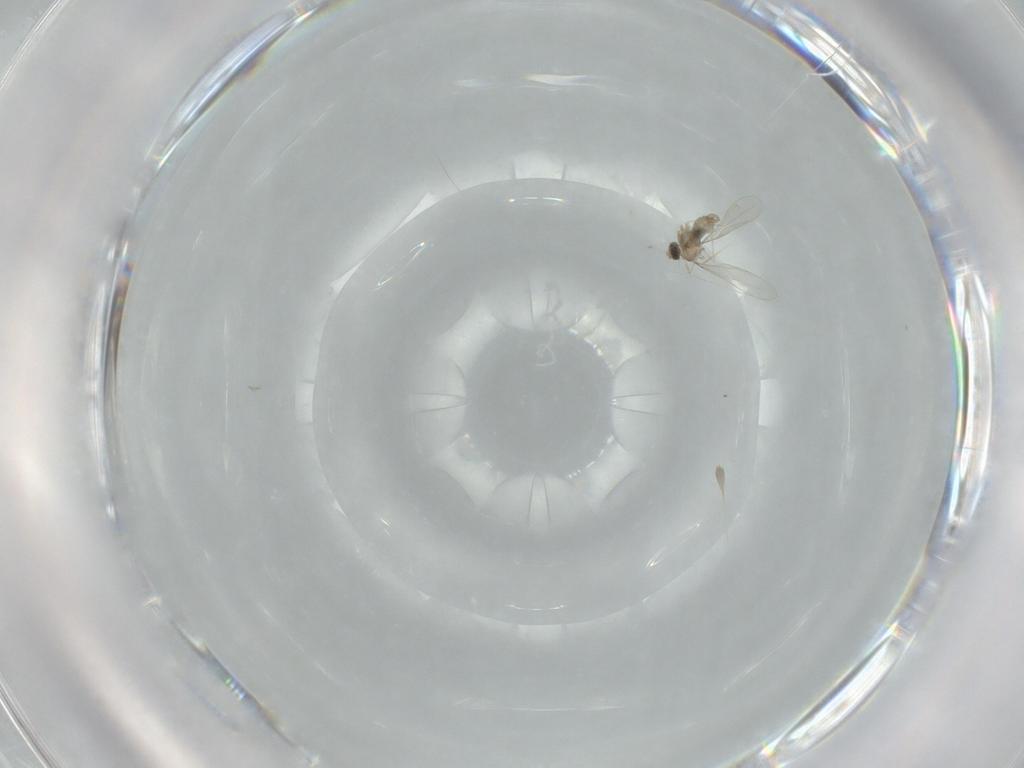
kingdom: Animalia
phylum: Arthropoda
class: Insecta
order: Diptera
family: Cecidomyiidae
